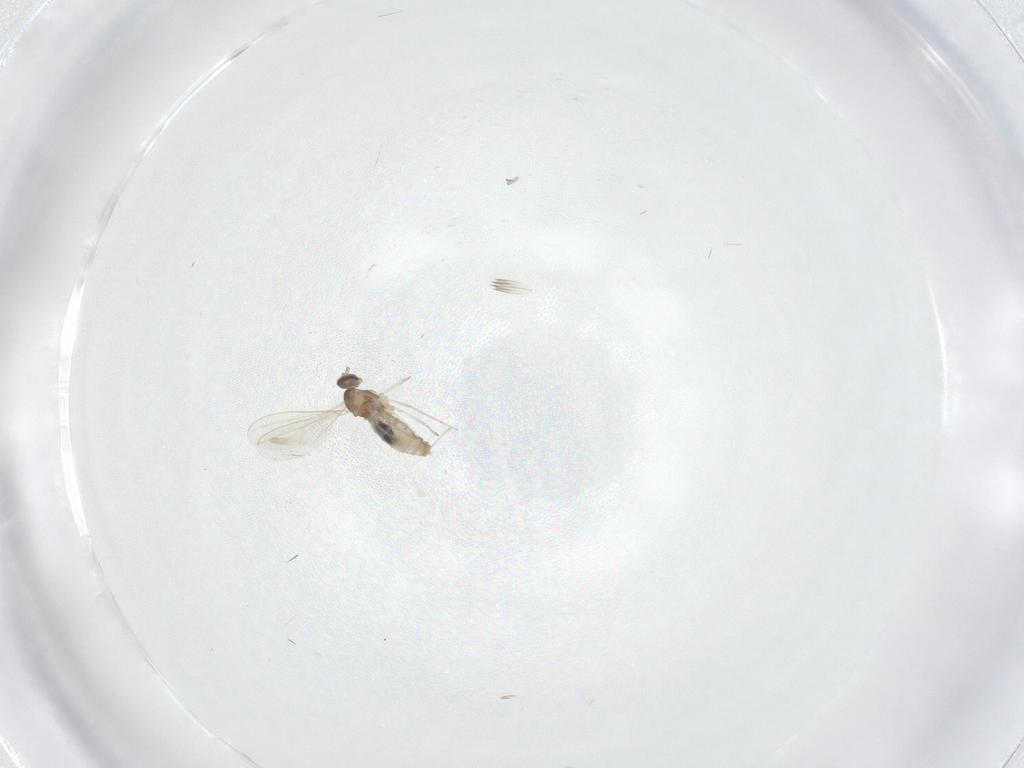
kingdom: Animalia
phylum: Arthropoda
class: Insecta
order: Diptera
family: Cecidomyiidae
